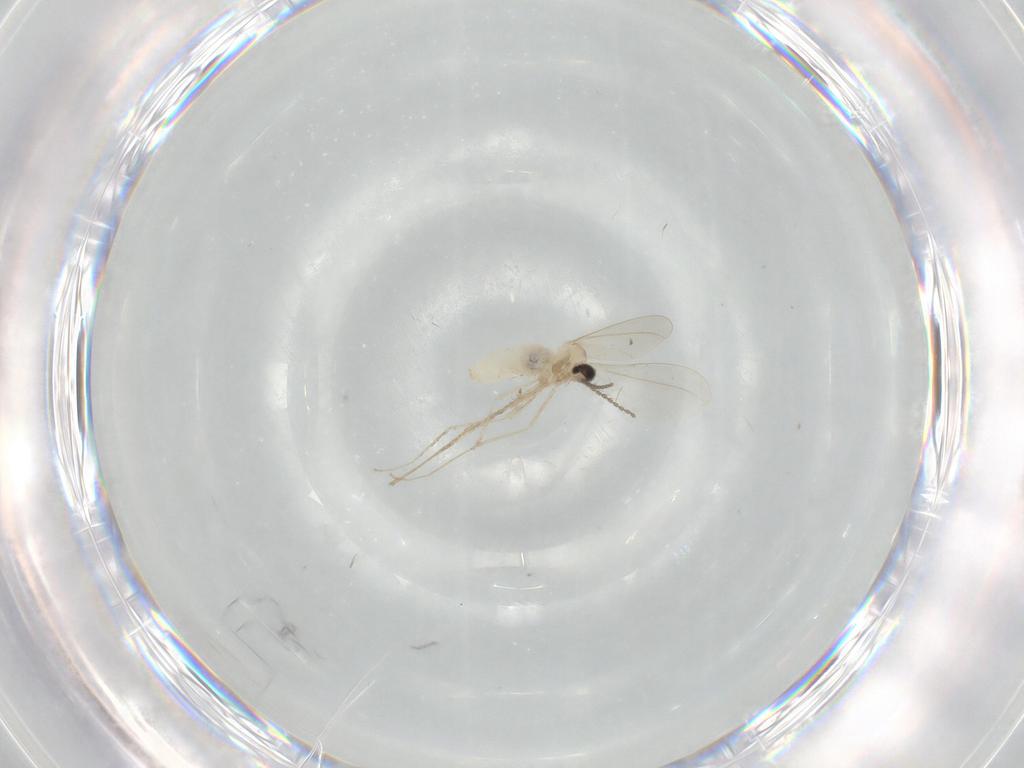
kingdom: Animalia
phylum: Arthropoda
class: Insecta
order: Diptera
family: Cecidomyiidae
